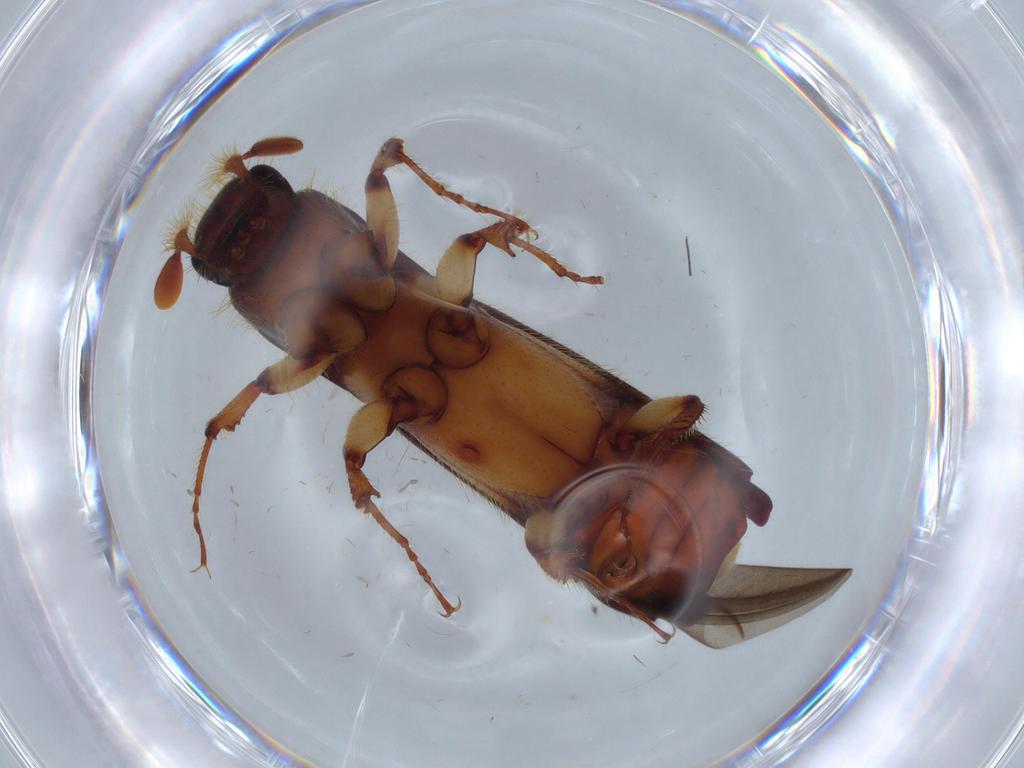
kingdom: Animalia
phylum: Arthropoda
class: Insecta
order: Coleoptera
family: Curculionidae
